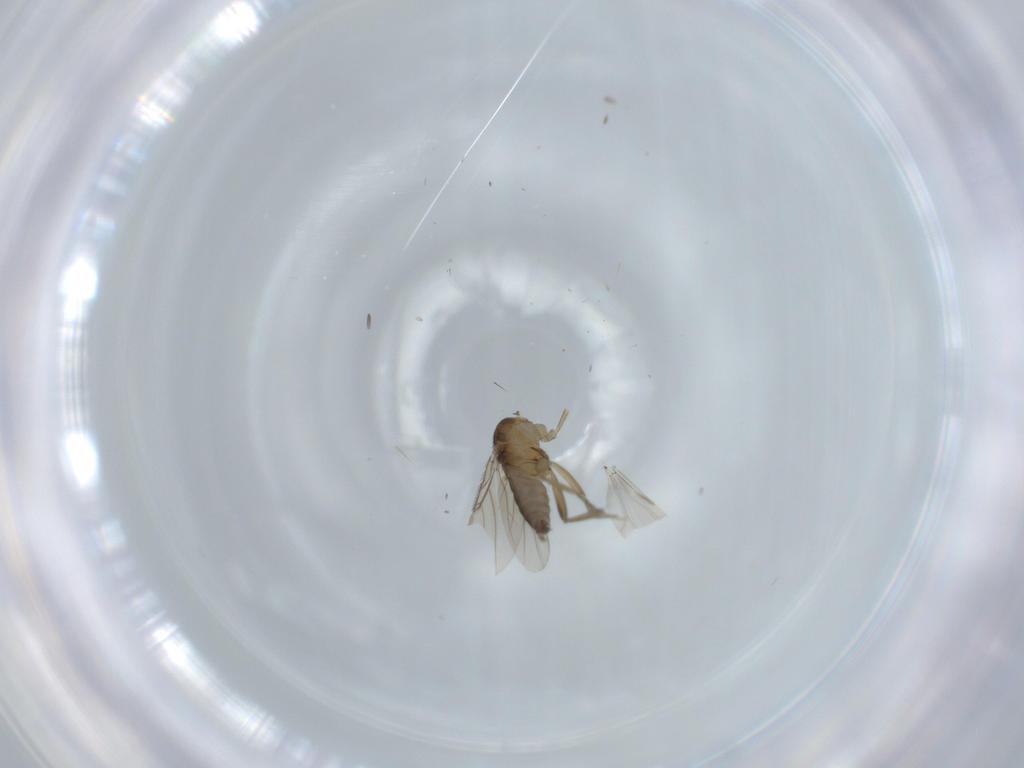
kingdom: Animalia
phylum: Arthropoda
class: Insecta
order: Diptera
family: Ceratopogonidae
